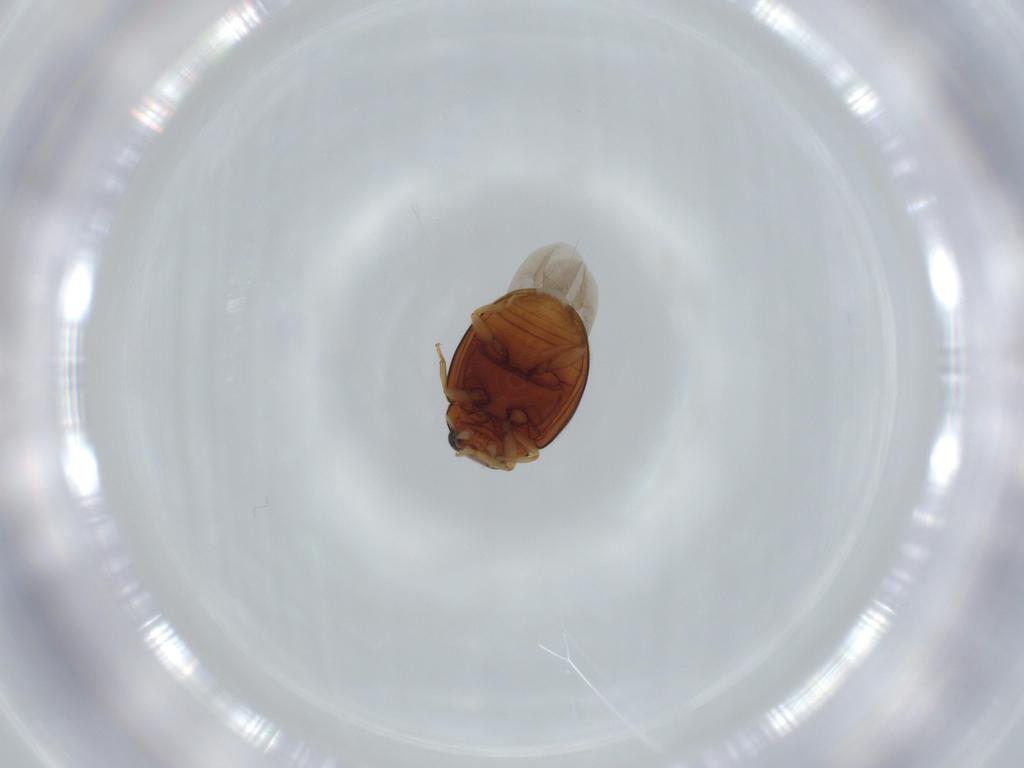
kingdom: Animalia
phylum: Arthropoda
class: Insecta
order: Coleoptera
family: Coccinellidae
